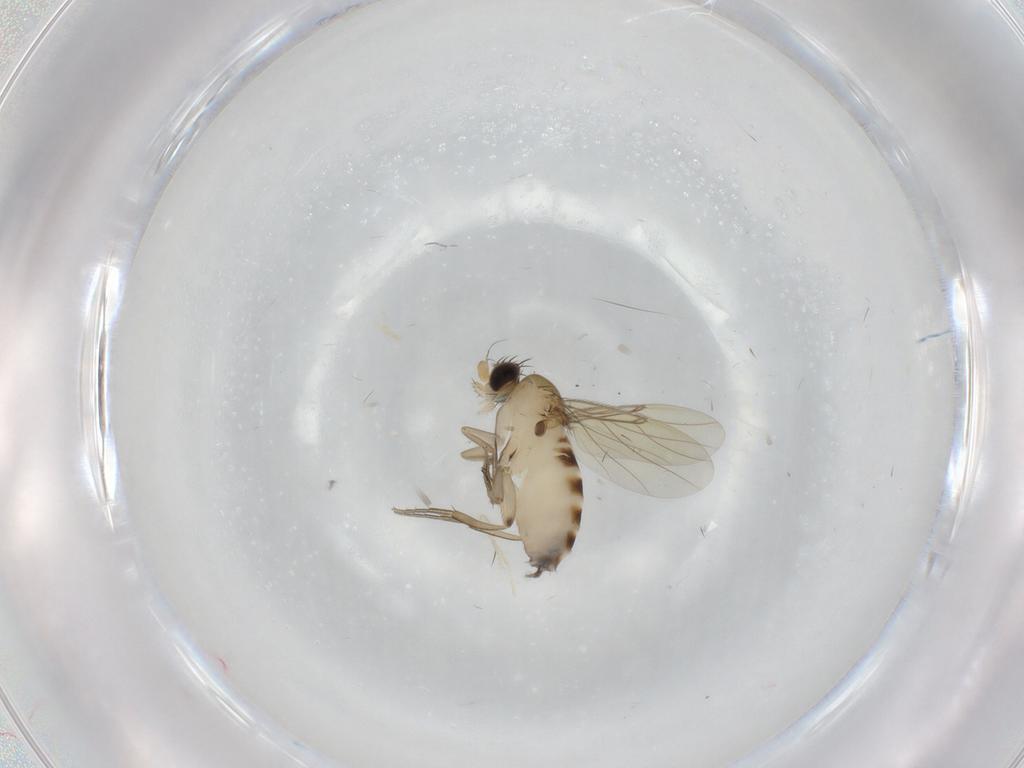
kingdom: Animalia
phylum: Arthropoda
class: Insecta
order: Diptera
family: Phoridae
